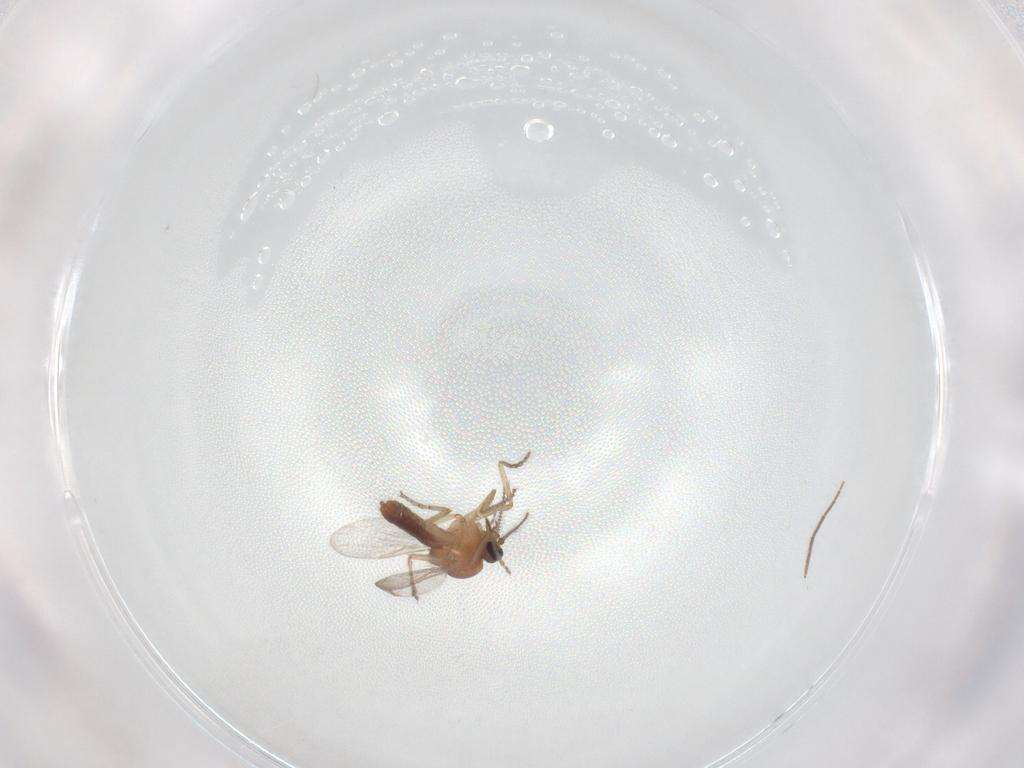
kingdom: Animalia
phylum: Arthropoda
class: Insecta
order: Diptera
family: Ceratopogonidae
